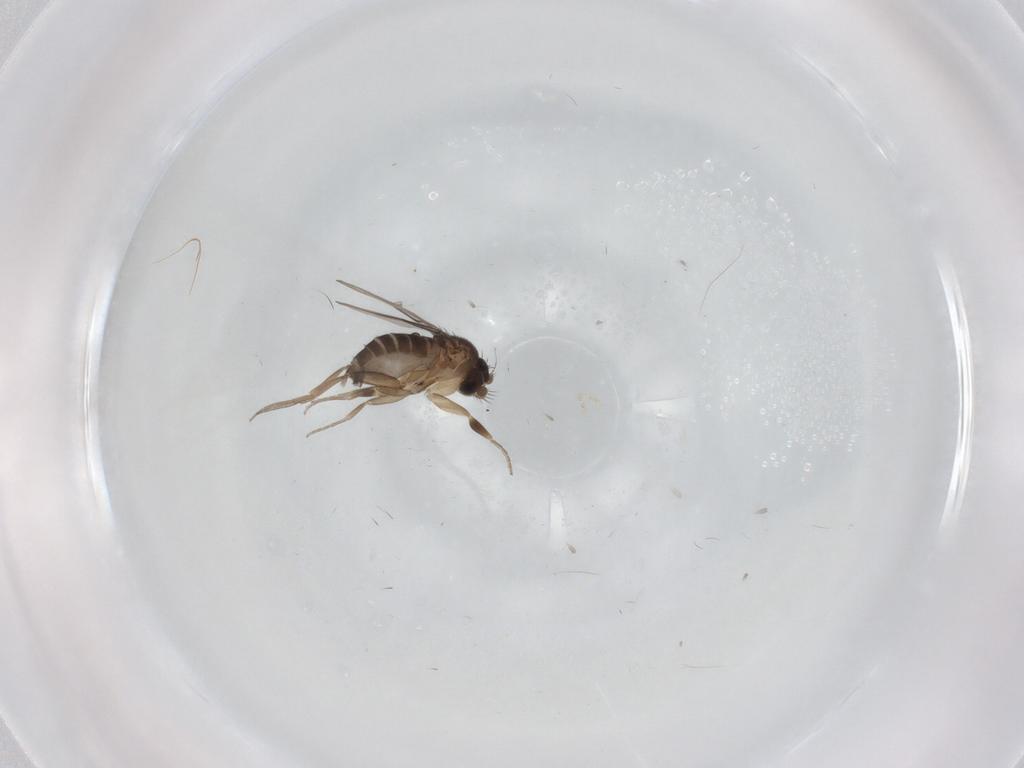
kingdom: Animalia
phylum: Arthropoda
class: Insecta
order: Diptera
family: Phoridae
